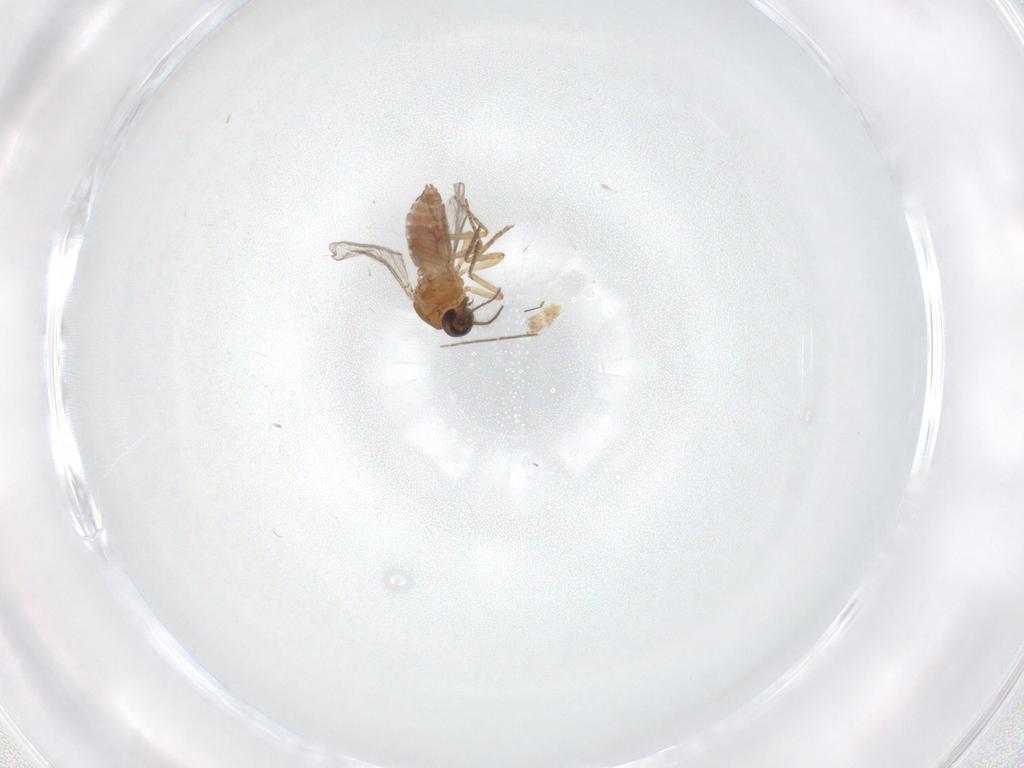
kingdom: Animalia
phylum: Arthropoda
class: Insecta
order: Diptera
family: Chironomidae
